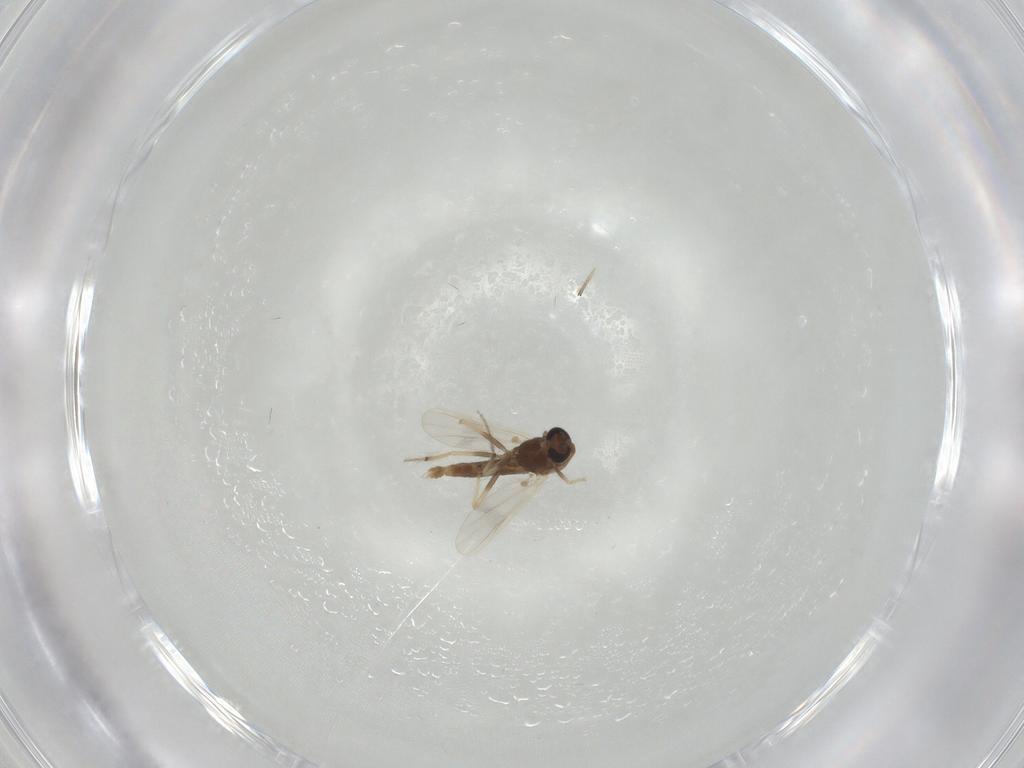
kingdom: Animalia
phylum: Arthropoda
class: Insecta
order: Diptera
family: Chironomidae
